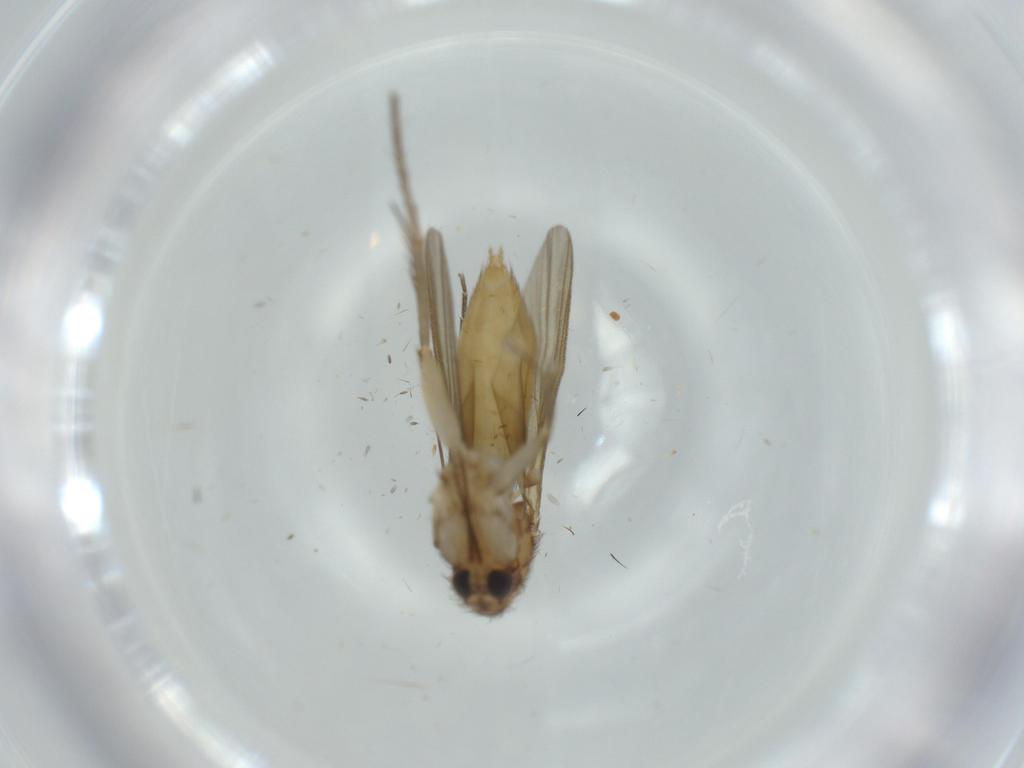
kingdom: Animalia
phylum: Arthropoda
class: Insecta
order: Diptera
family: Cecidomyiidae
